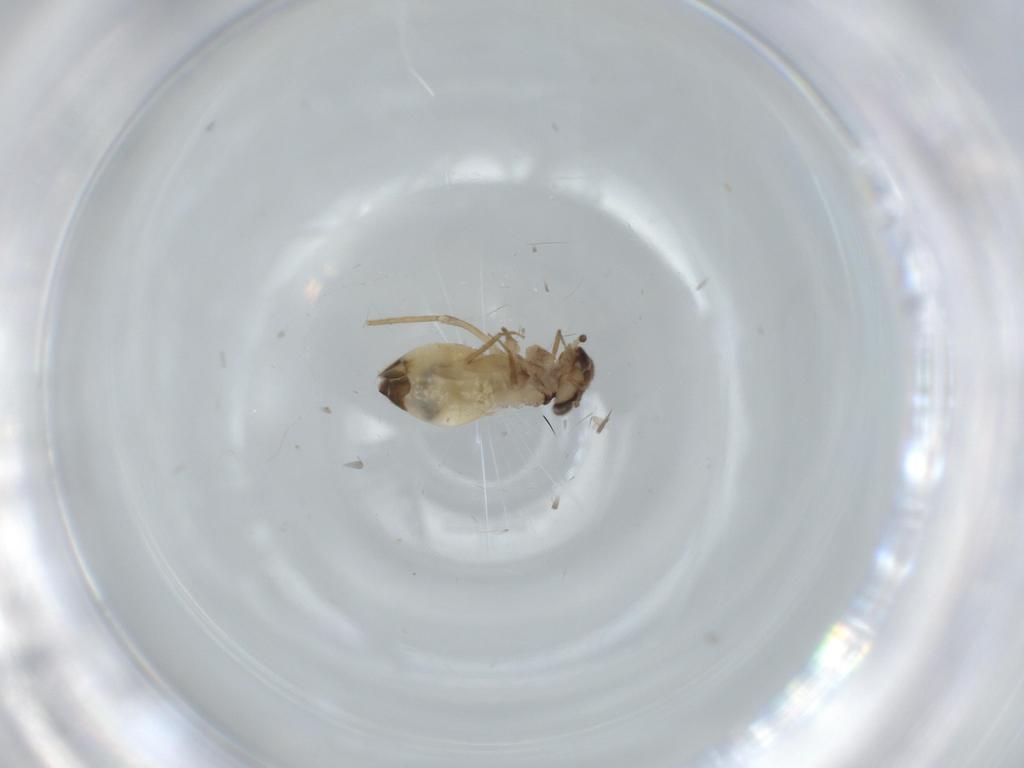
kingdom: Animalia
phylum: Arthropoda
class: Insecta
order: Psocodea
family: Lepidopsocidae
